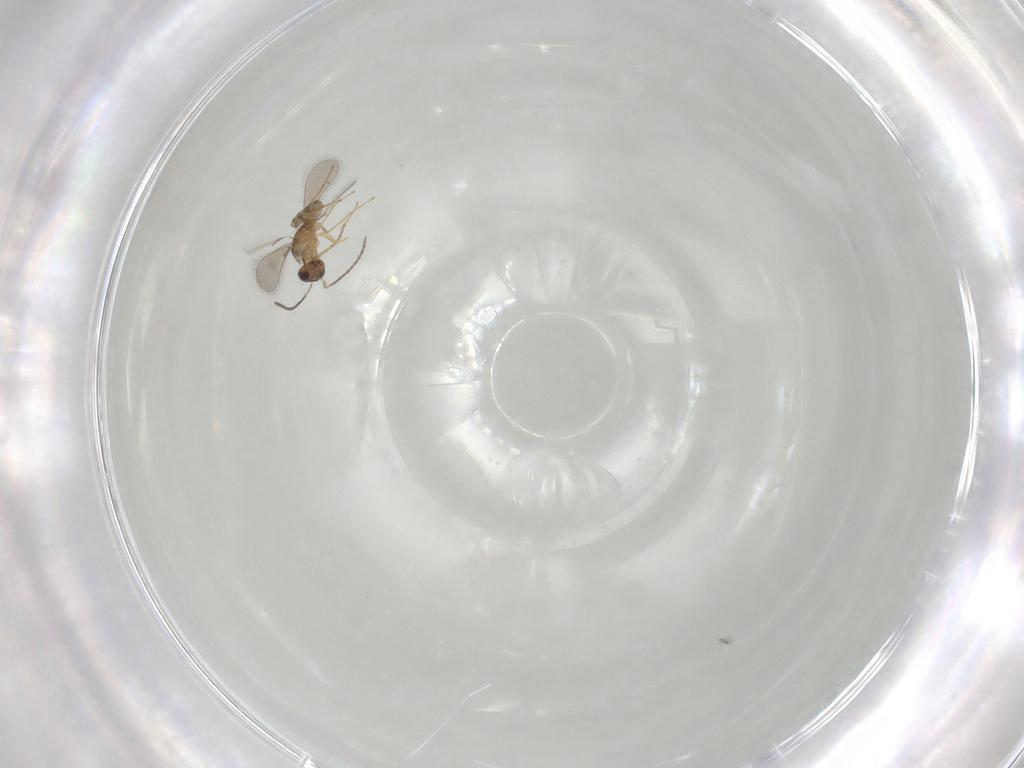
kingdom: Animalia
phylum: Arthropoda
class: Insecta
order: Hymenoptera
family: Mymaridae
